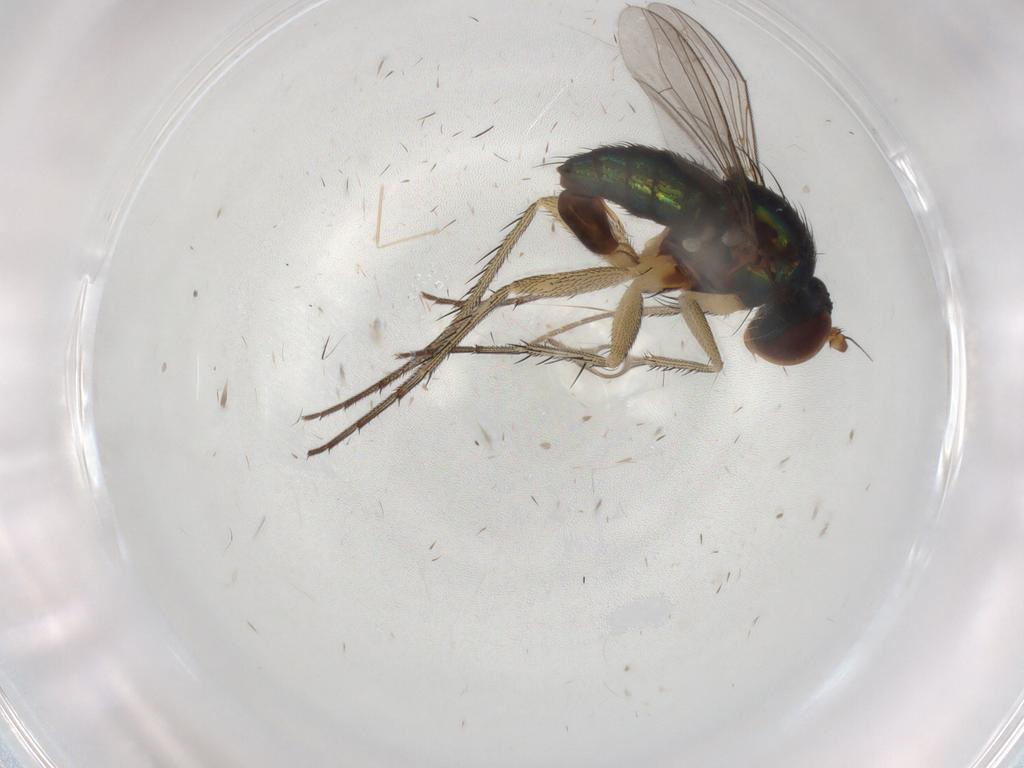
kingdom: Animalia
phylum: Arthropoda
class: Insecta
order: Diptera
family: Dolichopodidae
